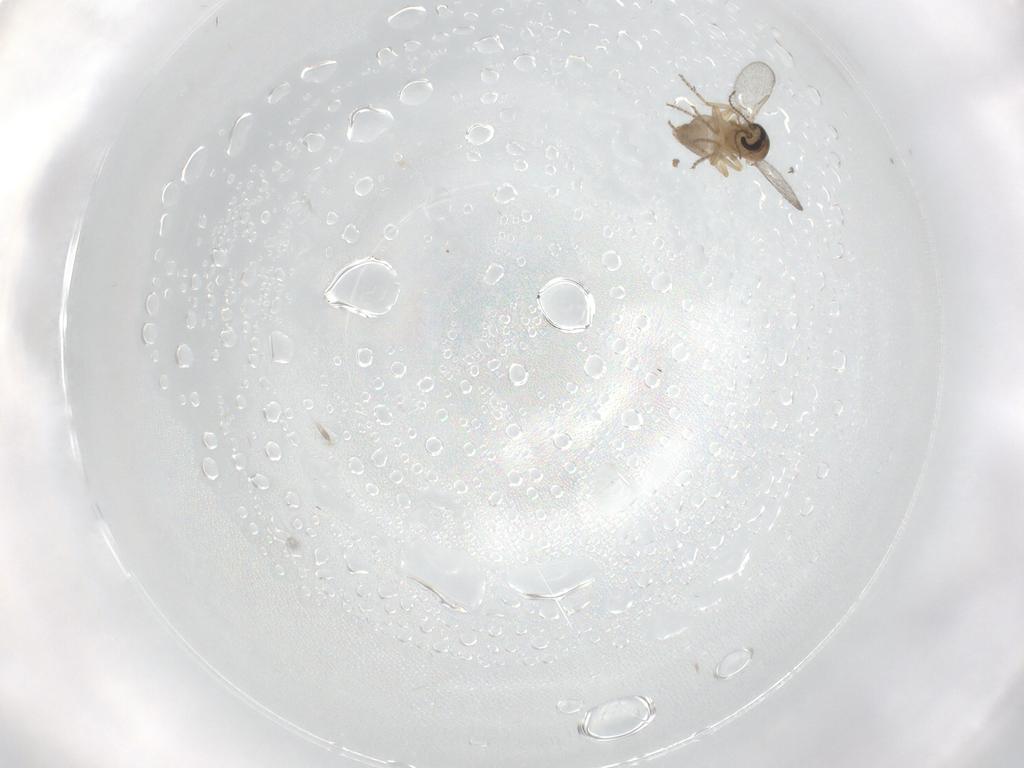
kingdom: Animalia
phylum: Arthropoda
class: Insecta
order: Diptera
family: Ceratopogonidae
